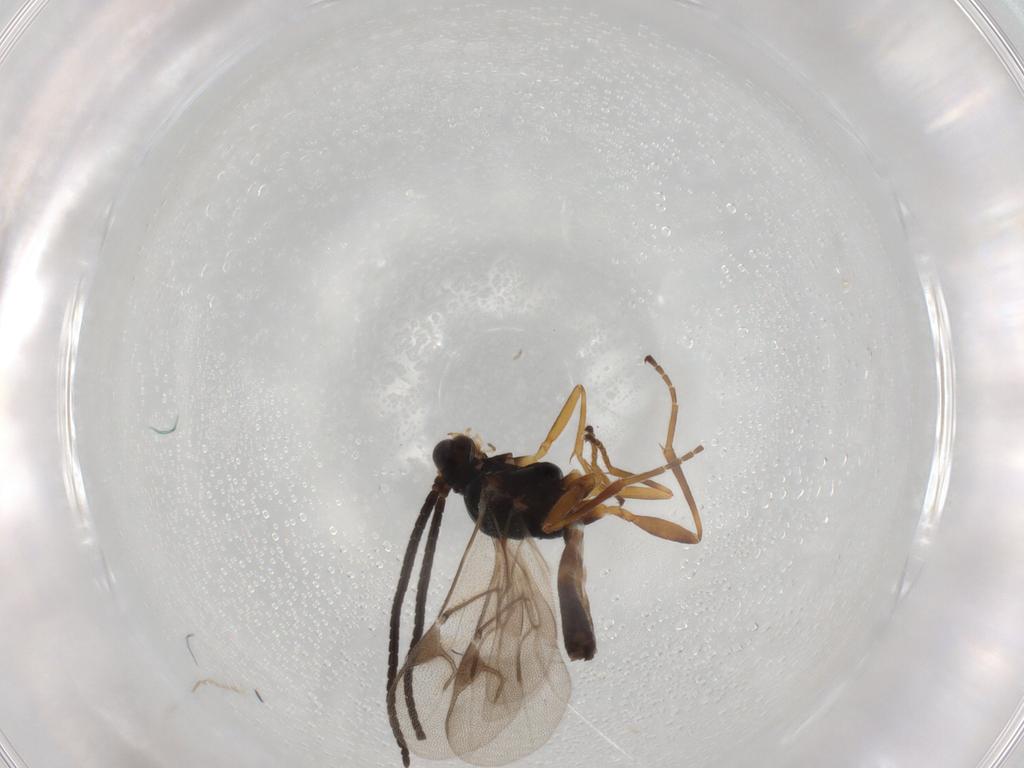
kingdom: Animalia
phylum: Arthropoda
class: Insecta
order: Hymenoptera
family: Braconidae
